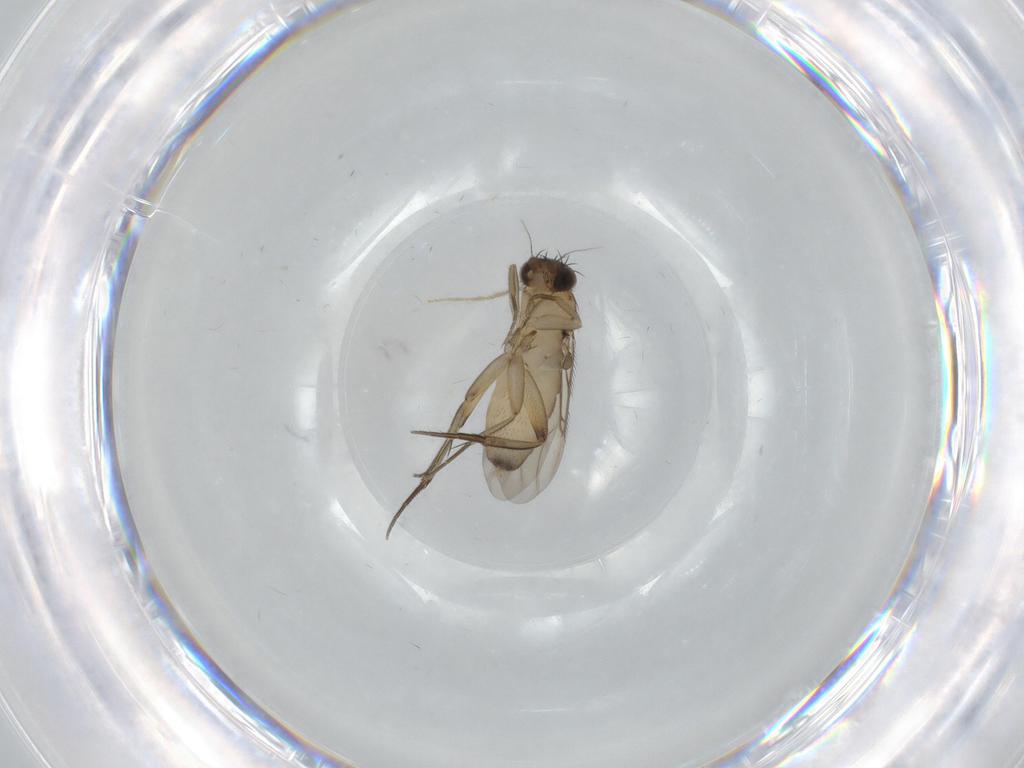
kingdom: Animalia
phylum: Arthropoda
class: Insecta
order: Diptera
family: Phoridae
